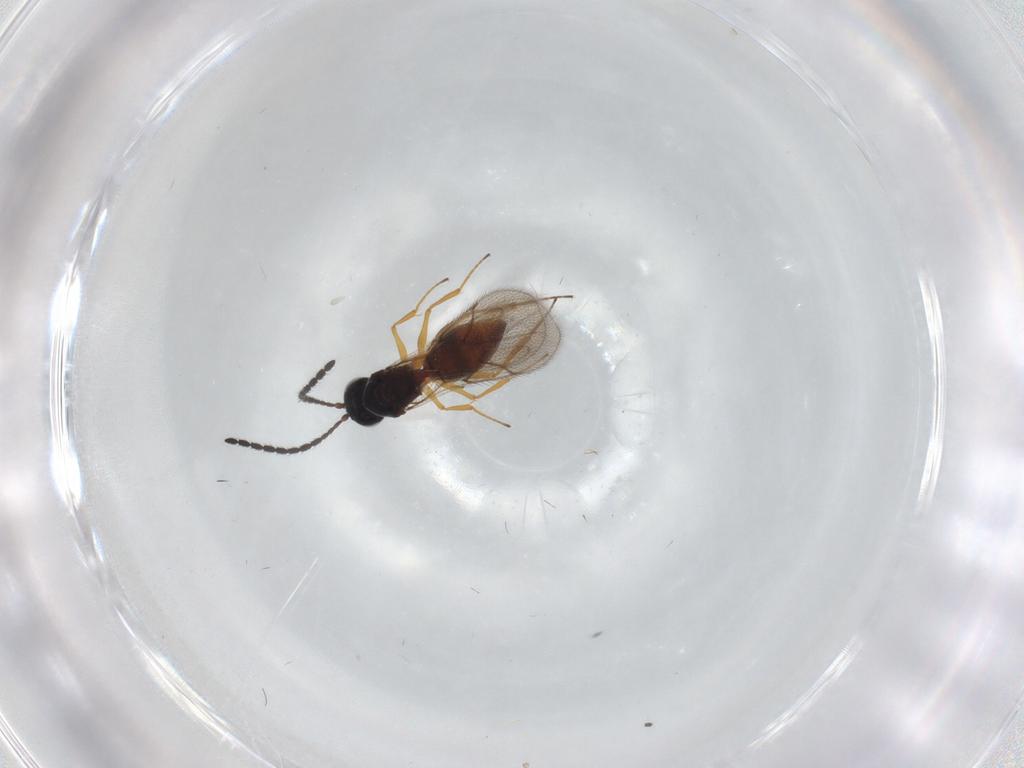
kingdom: Animalia
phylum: Arthropoda
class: Insecta
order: Hymenoptera
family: Figitidae
